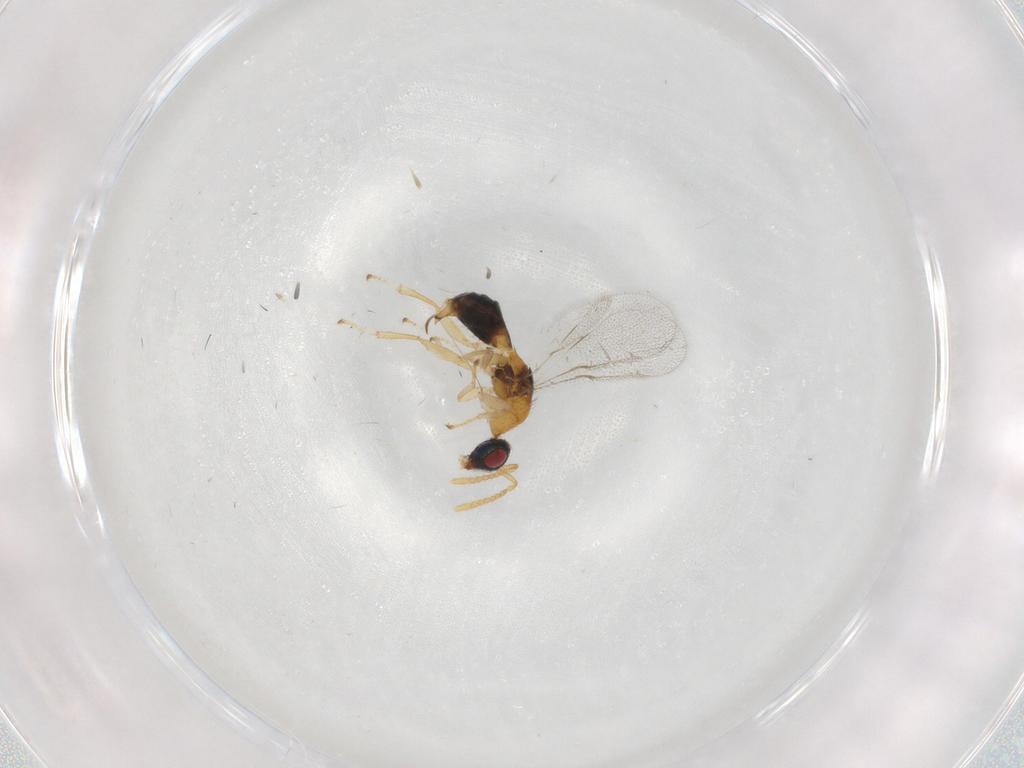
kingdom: Animalia
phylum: Arthropoda
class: Insecta
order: Hymenoptera
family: Torymidae
